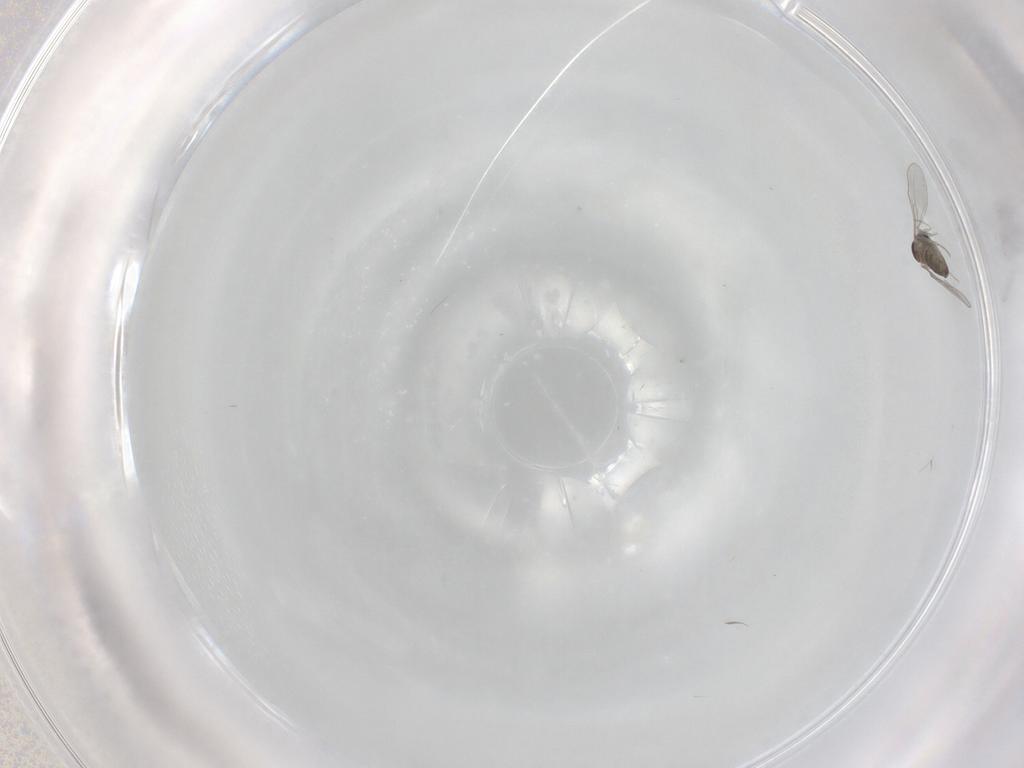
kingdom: Animalia
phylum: Arthropoda
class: Insecta
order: Diptera
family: Cecidomyiidae
